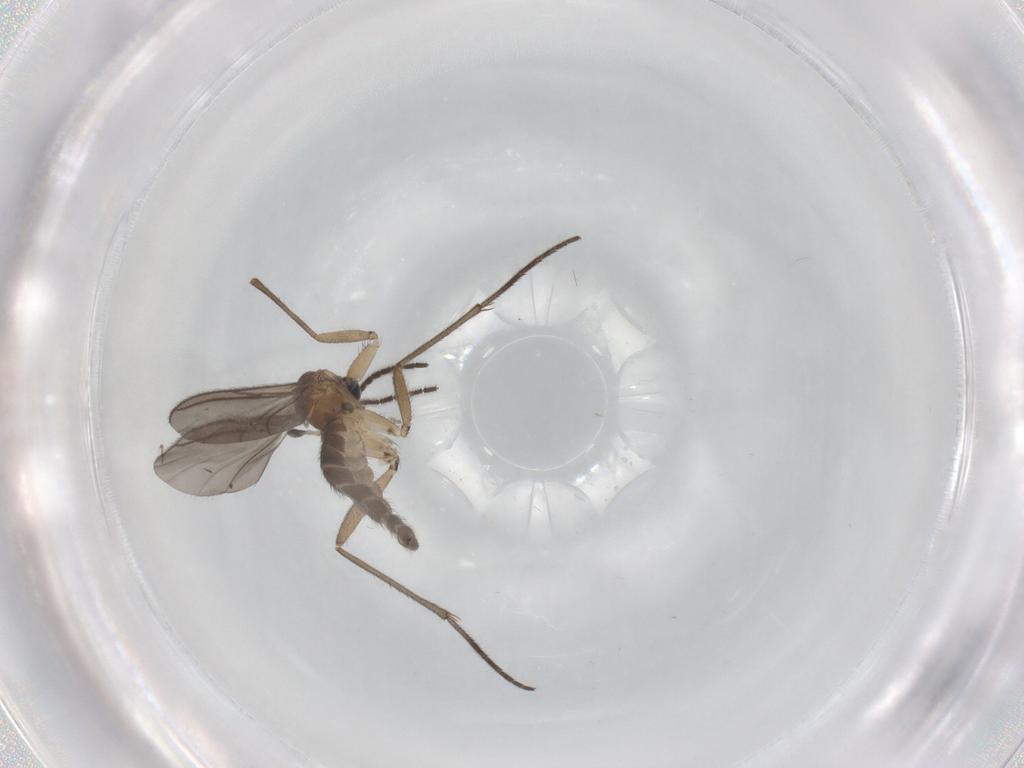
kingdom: Animalia
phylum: Arthropoda
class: Insecta
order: Diptera
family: Sciaridae
